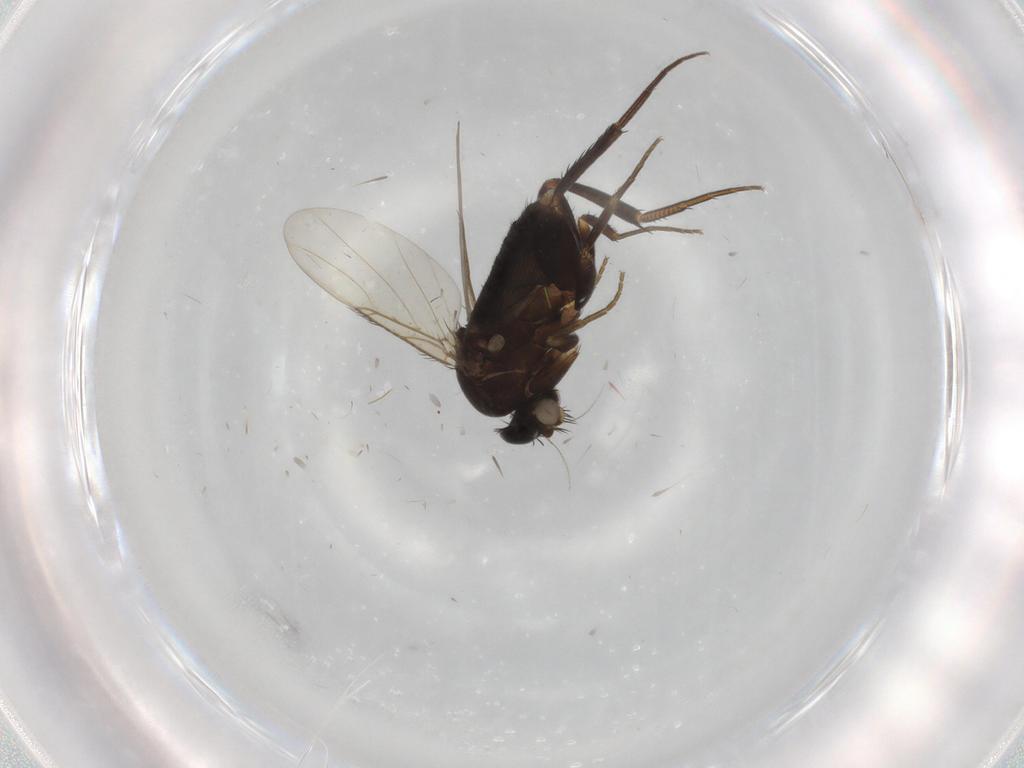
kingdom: Animalia
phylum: Arthropoda
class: Insecta
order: Diptera
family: Phoridae
